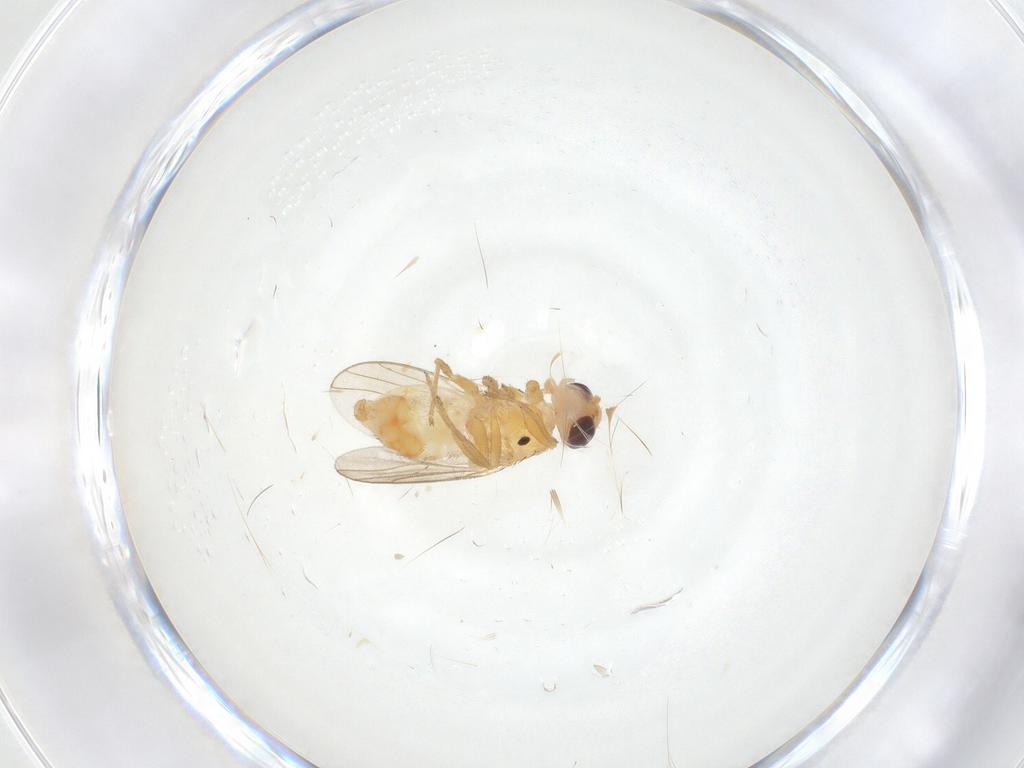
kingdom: Animalia
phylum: Arthropoda
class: Insecta
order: Diptera
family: Chloropidae
